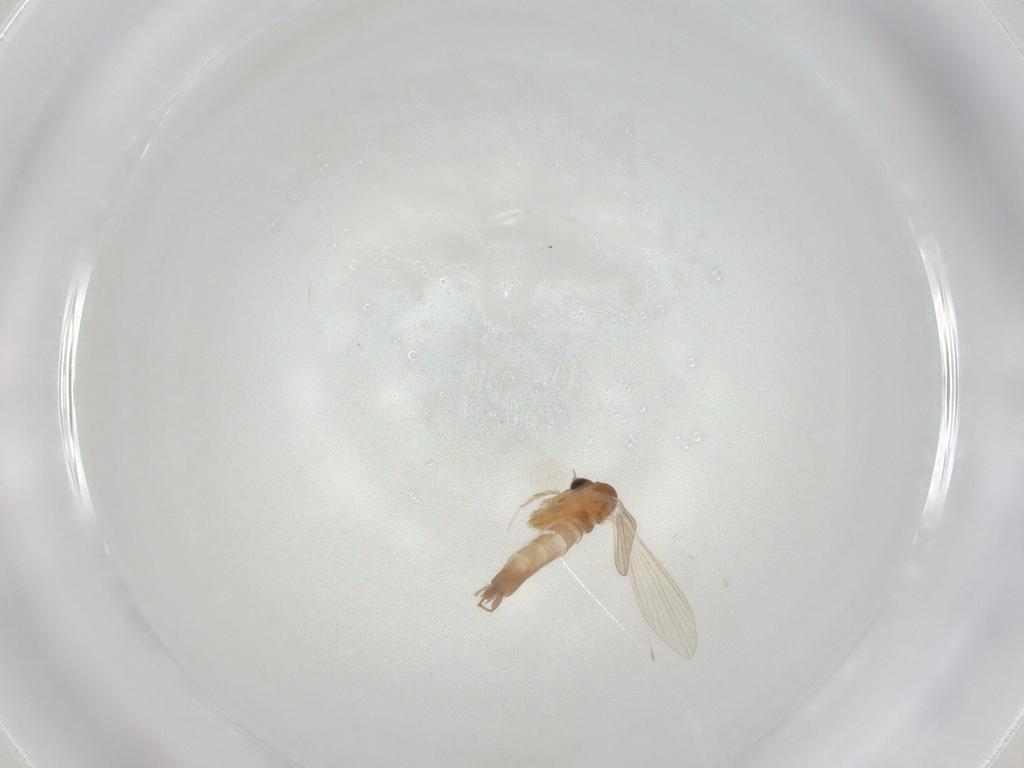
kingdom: Animalia
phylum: Arthropoda
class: Insecta
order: Diptera
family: Psychodidae
